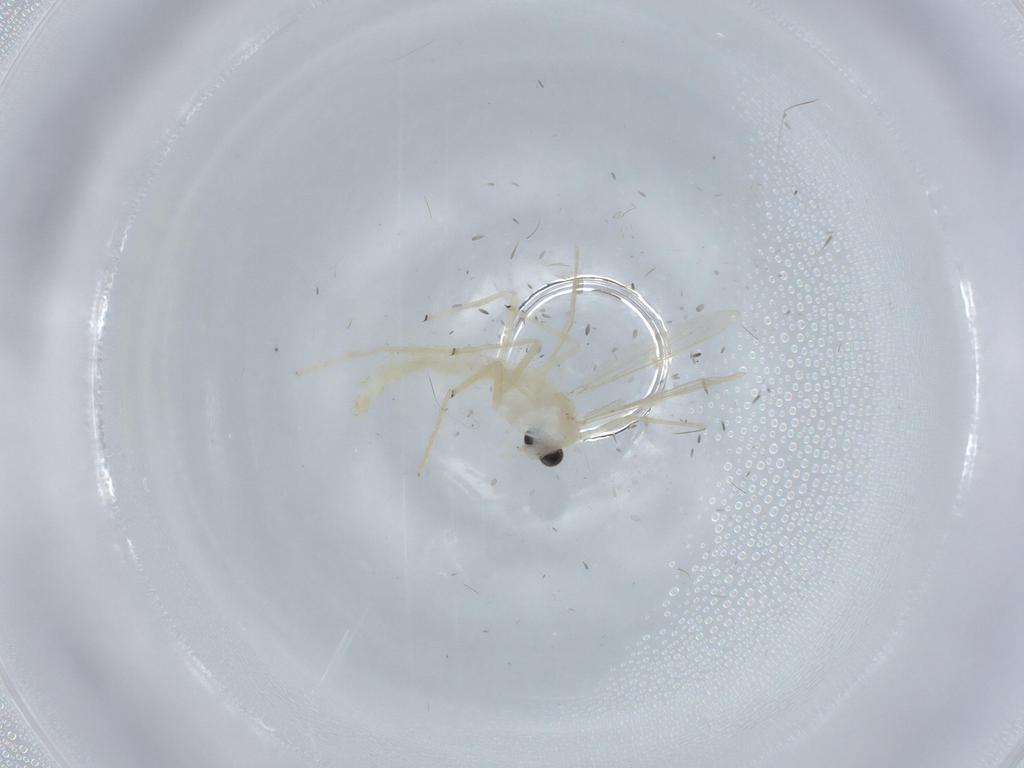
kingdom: Animalia
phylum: Arthropoda
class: Insecta
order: Diptera
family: Chironomidae
